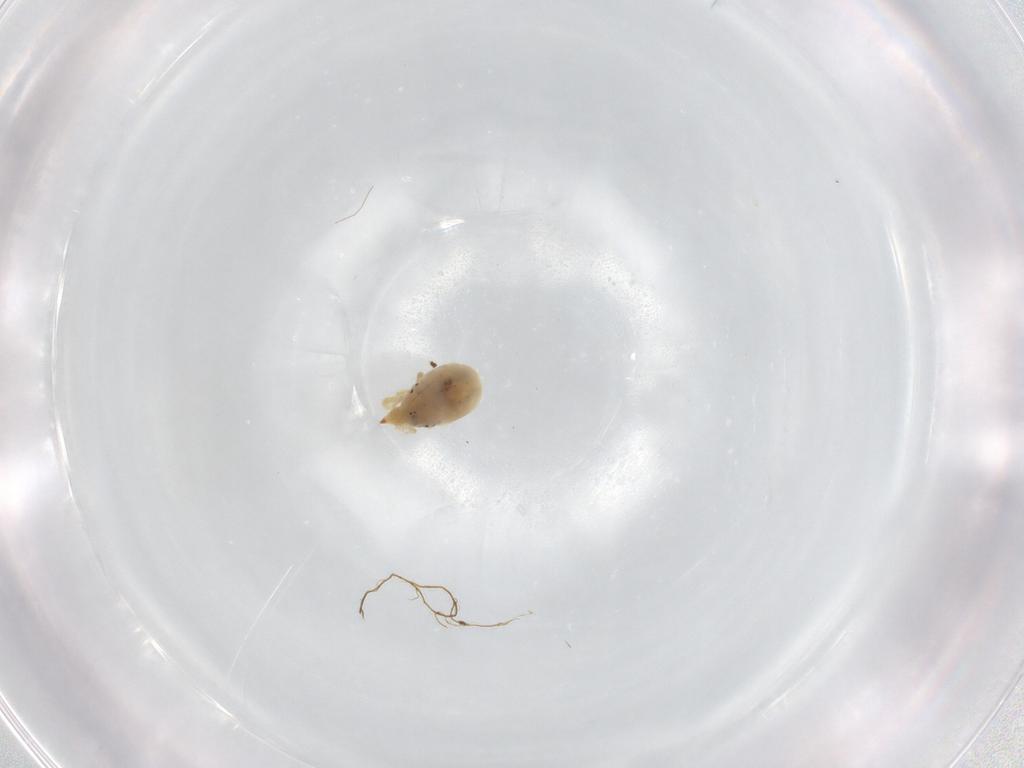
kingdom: Animalia
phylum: Arthropoda
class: Arachnida
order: Trombidiformes
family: Bdellidae
